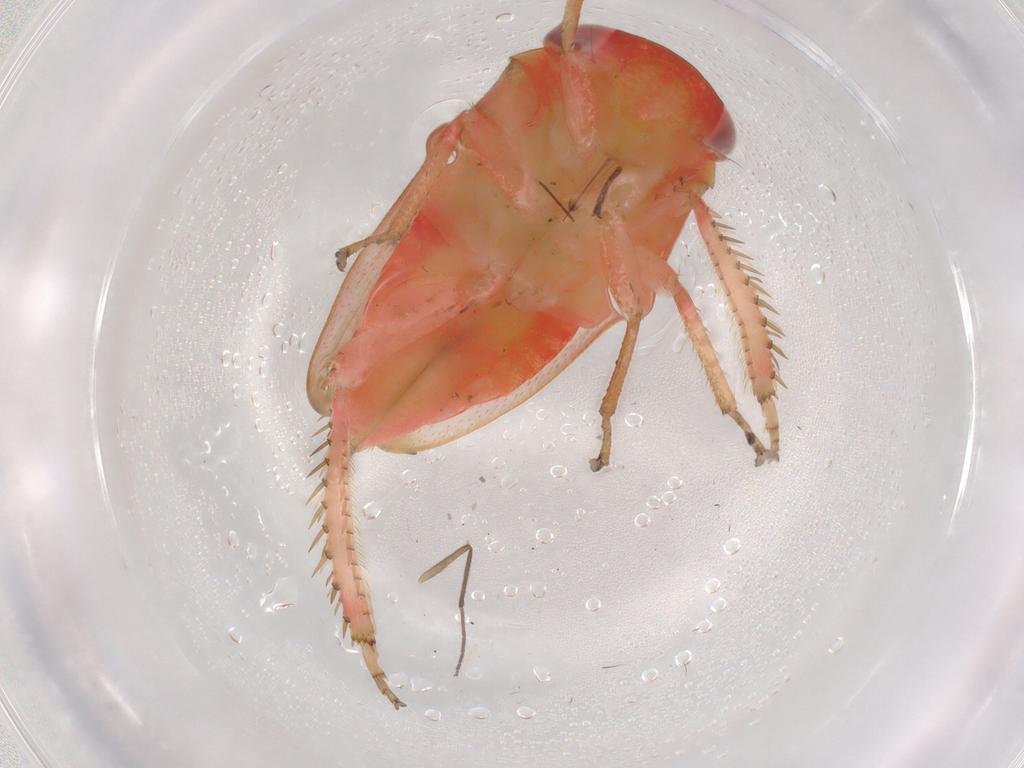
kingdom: Animalia
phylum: Arthropoda
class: Insecta
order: Hemiptera
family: Cicadellidae
